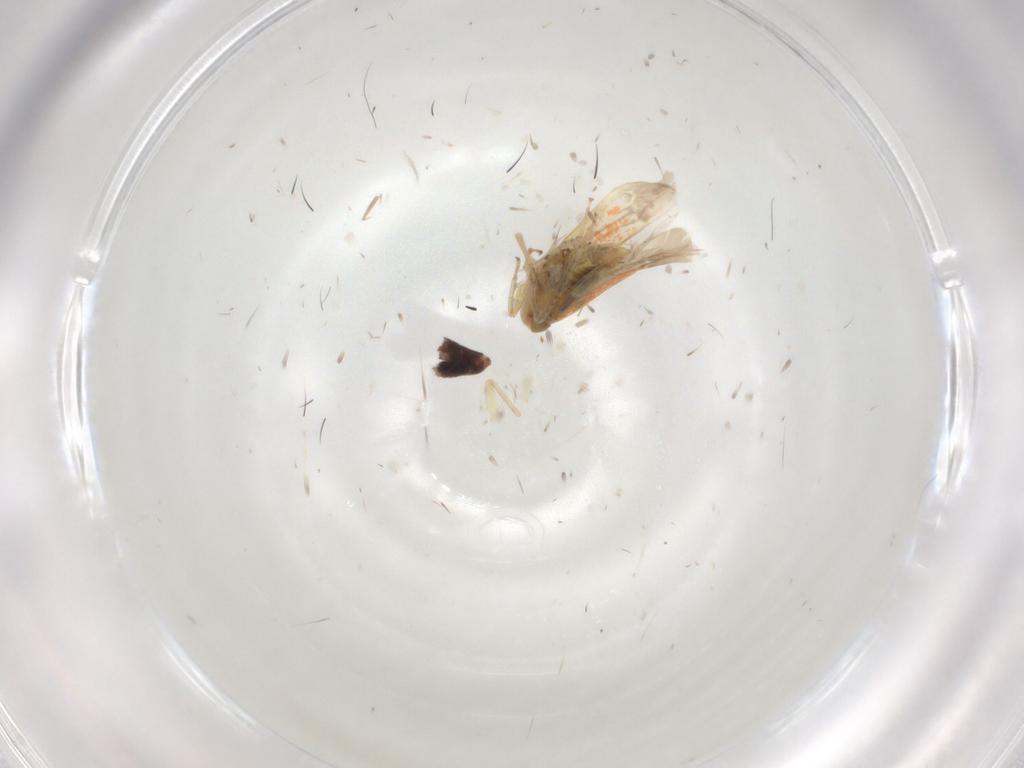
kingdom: Animalia
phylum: Arthropoda
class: Insecta
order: Hemiptera
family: Cicadellidae
